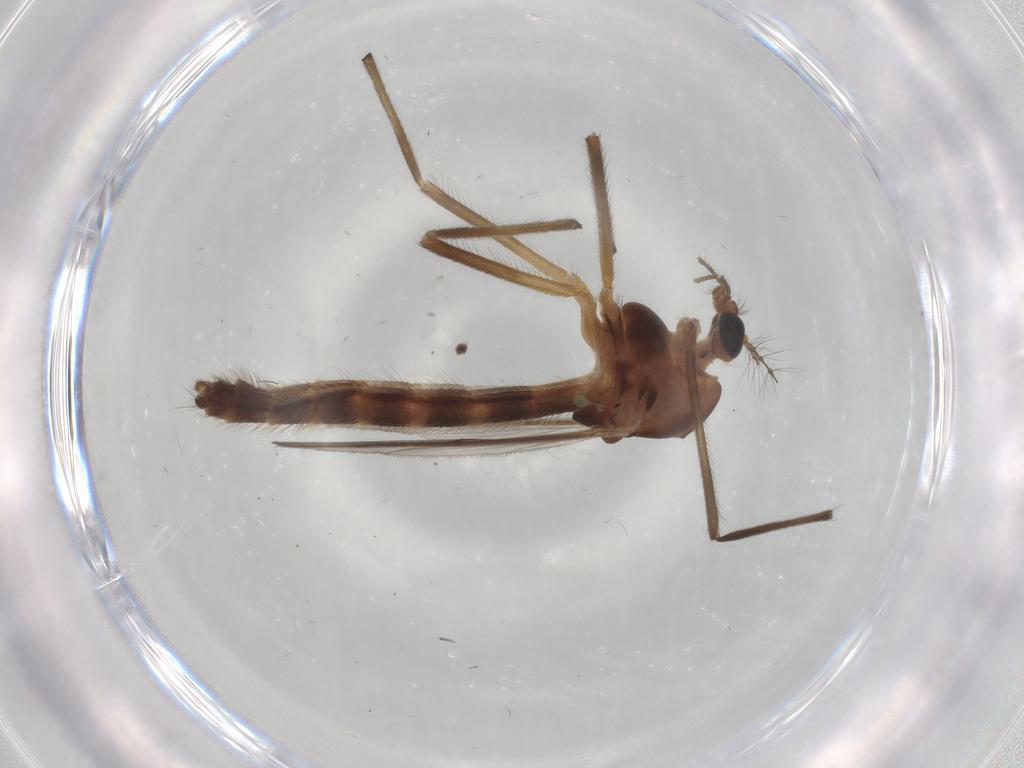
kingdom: Animalia
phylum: Arthropoda
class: Insecta
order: Diptera
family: Chironomidae
